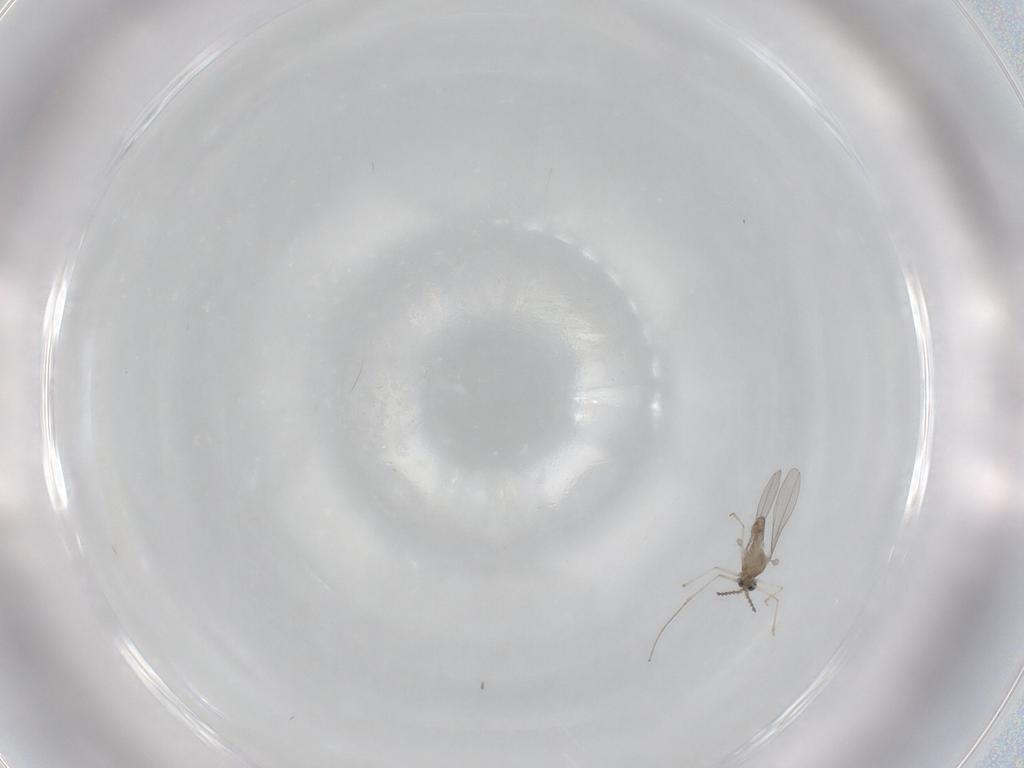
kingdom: Animalia
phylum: Arthropoda
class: Insecta
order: Diptera
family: Cecidomyiidae
